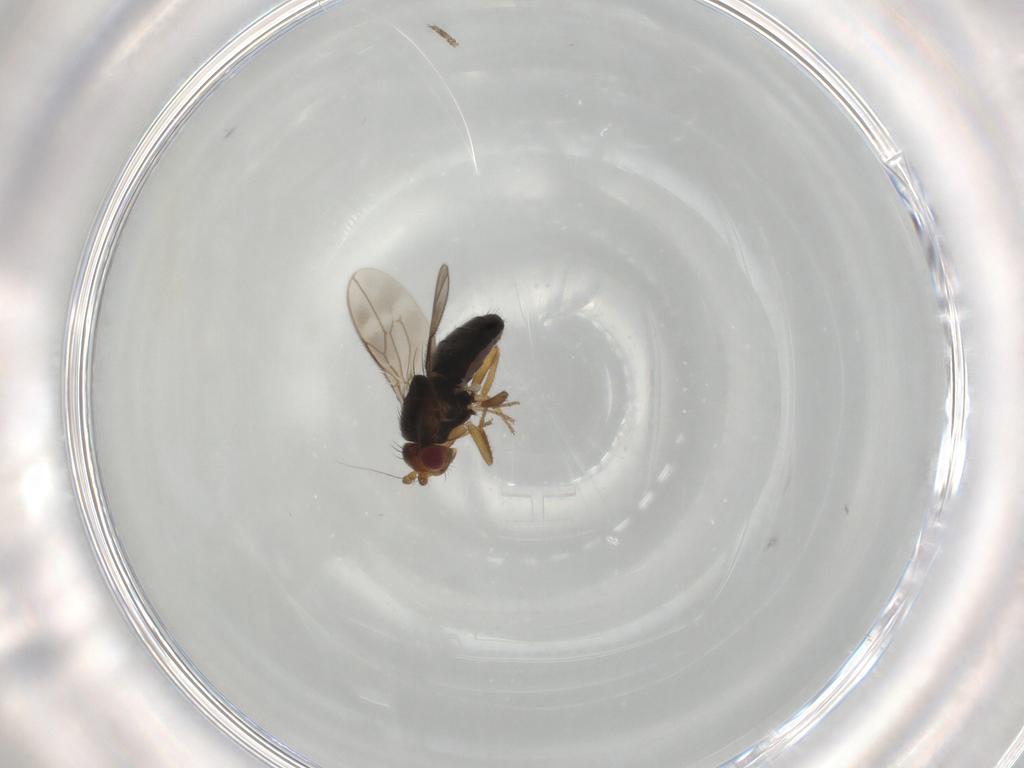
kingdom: Animalia
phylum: Arthropoda
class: Insecta
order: Diptera
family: Sphaeroceridae
